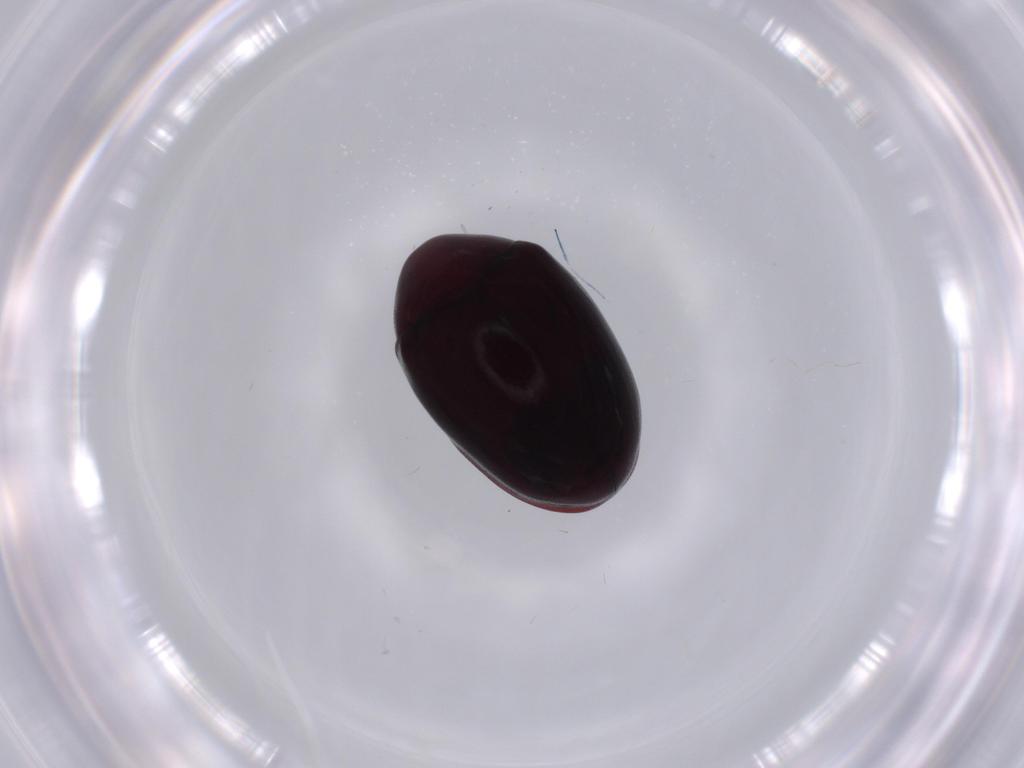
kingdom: Animalia
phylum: Arthropoda
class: Insecta
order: Coleoptera
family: Ptinidae
